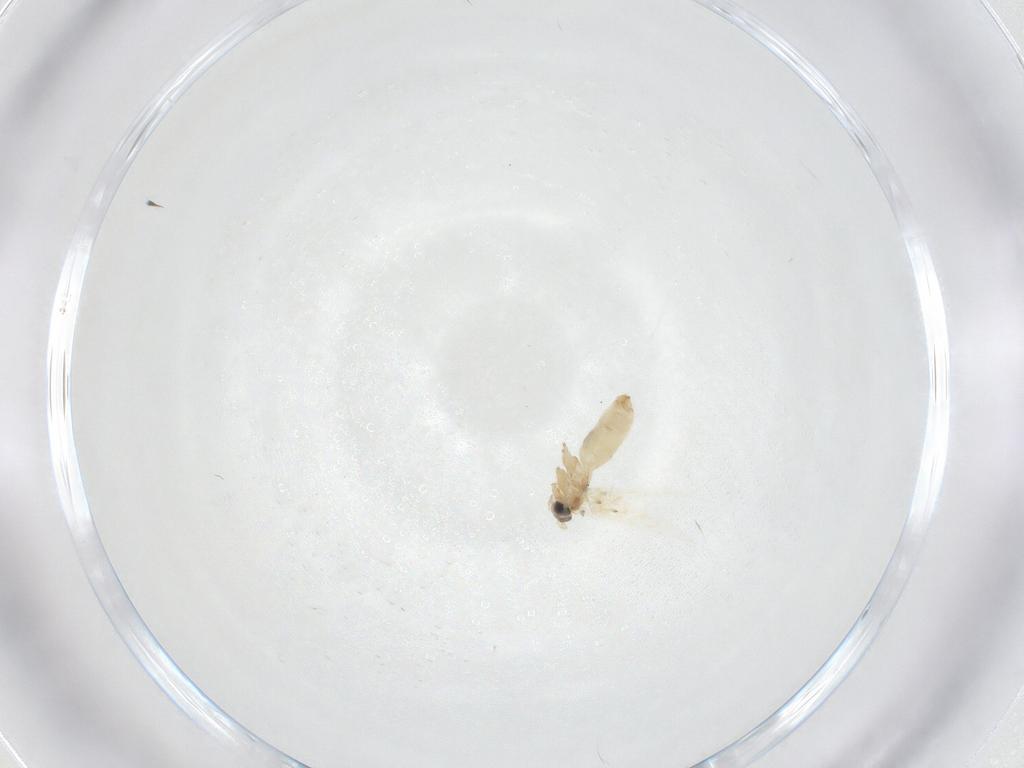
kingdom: Animalia
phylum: Arthropoda
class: Insecta
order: Lepidoptera
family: Crambidae
